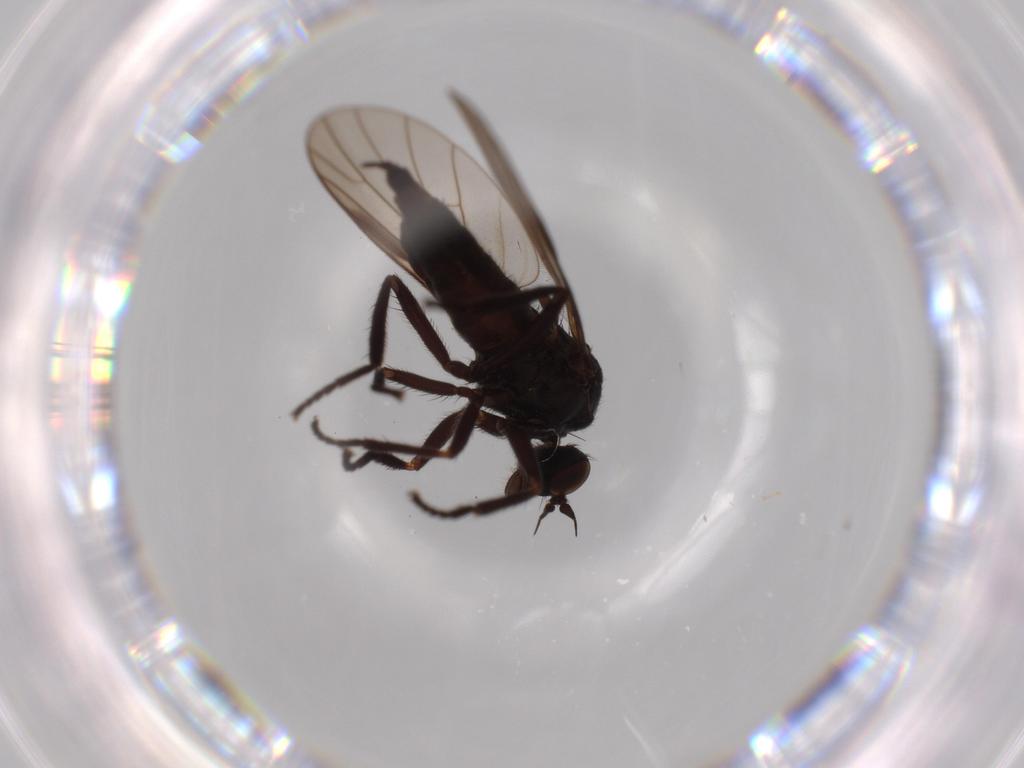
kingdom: Animalia
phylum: Arthropoda
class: Insecta
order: Diptera
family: Empididae
